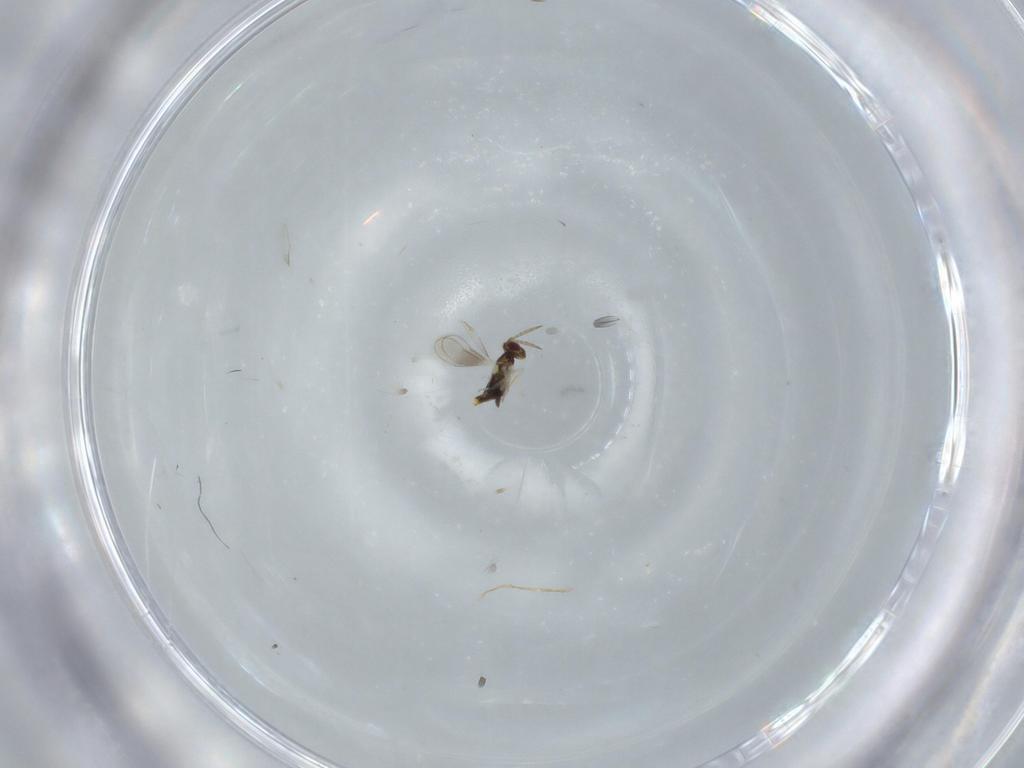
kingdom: Animalia
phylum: Arthropoda
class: Insecta
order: Hymenoptera
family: Aphelinidae
